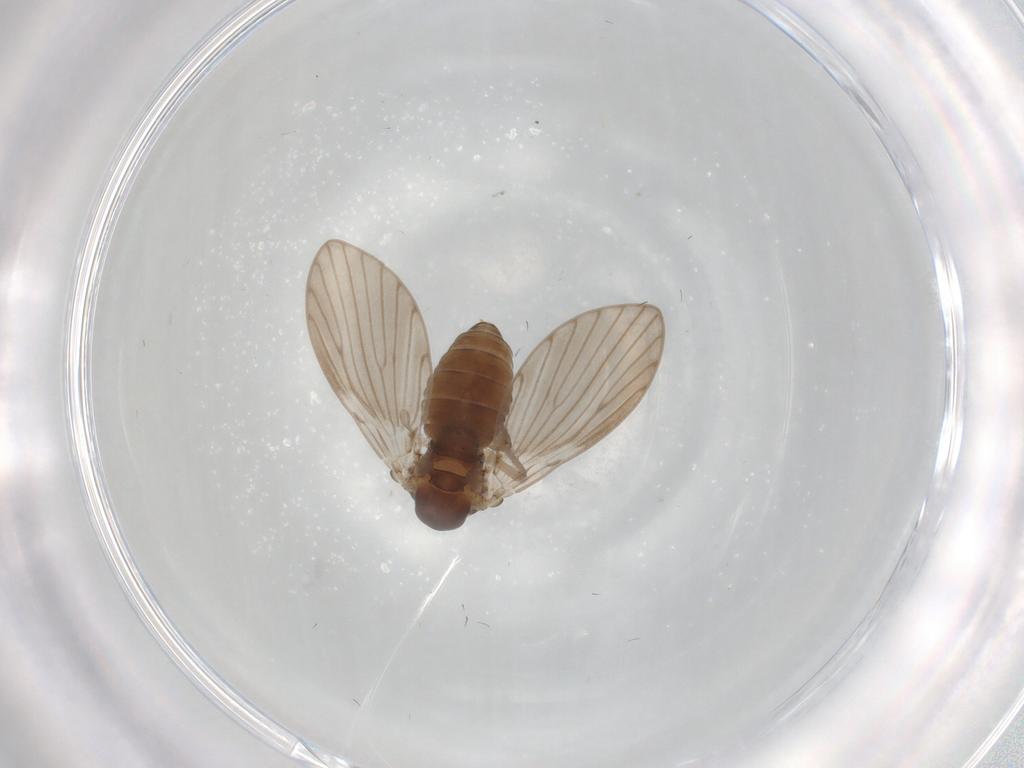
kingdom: Animalia
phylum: Arthropoda
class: Insecta
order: Diptera
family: Psychodidae
